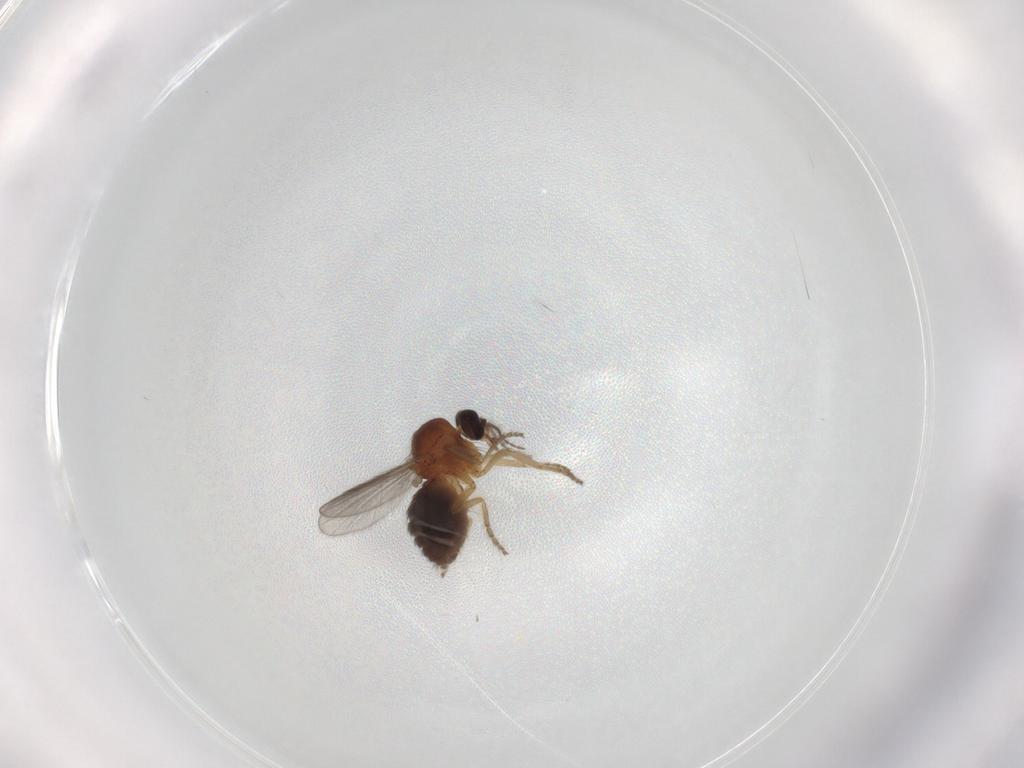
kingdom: Animalia
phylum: Arthropoda
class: Insecta
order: Diptera
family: Ceratopogonidae
